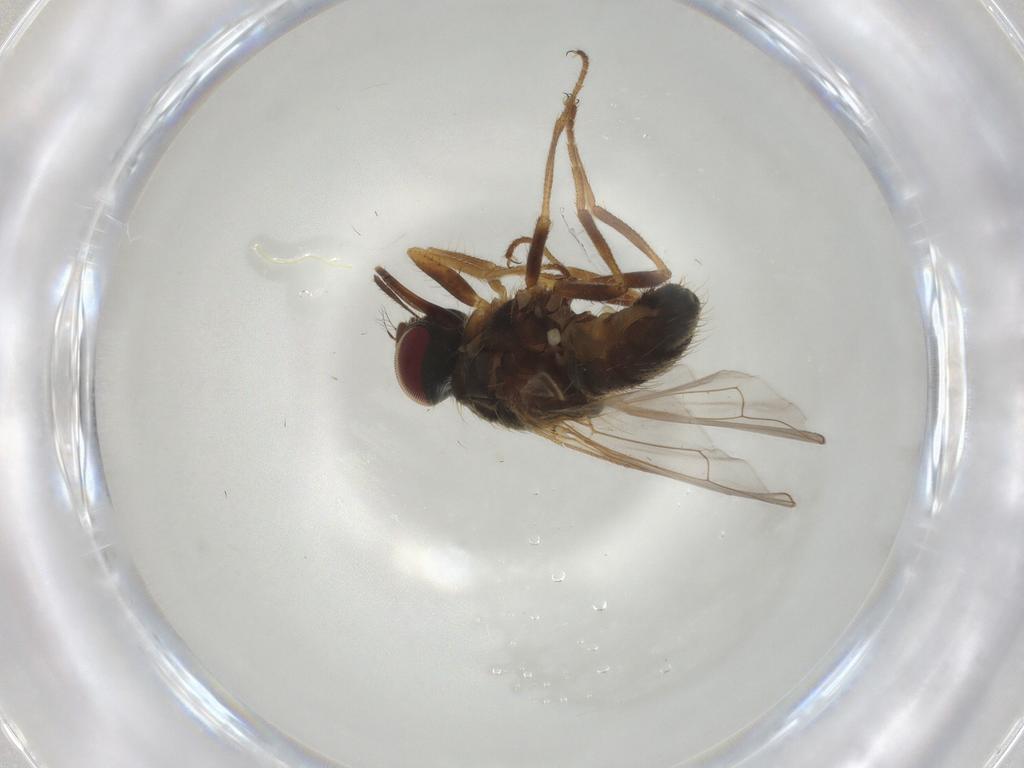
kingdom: Animalia
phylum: Arthropoda
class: Insecta
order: Diptera
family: Muscidae
